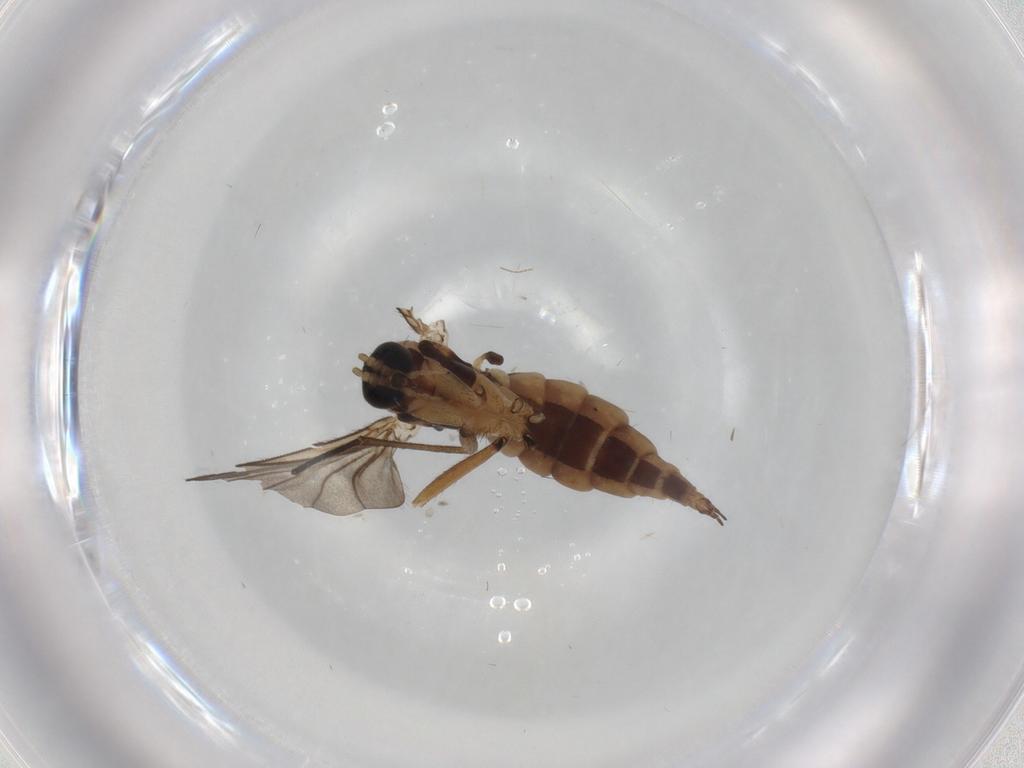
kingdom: Animalia
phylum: Arthropoda
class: Insecta
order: Diptera
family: Sciaridae
